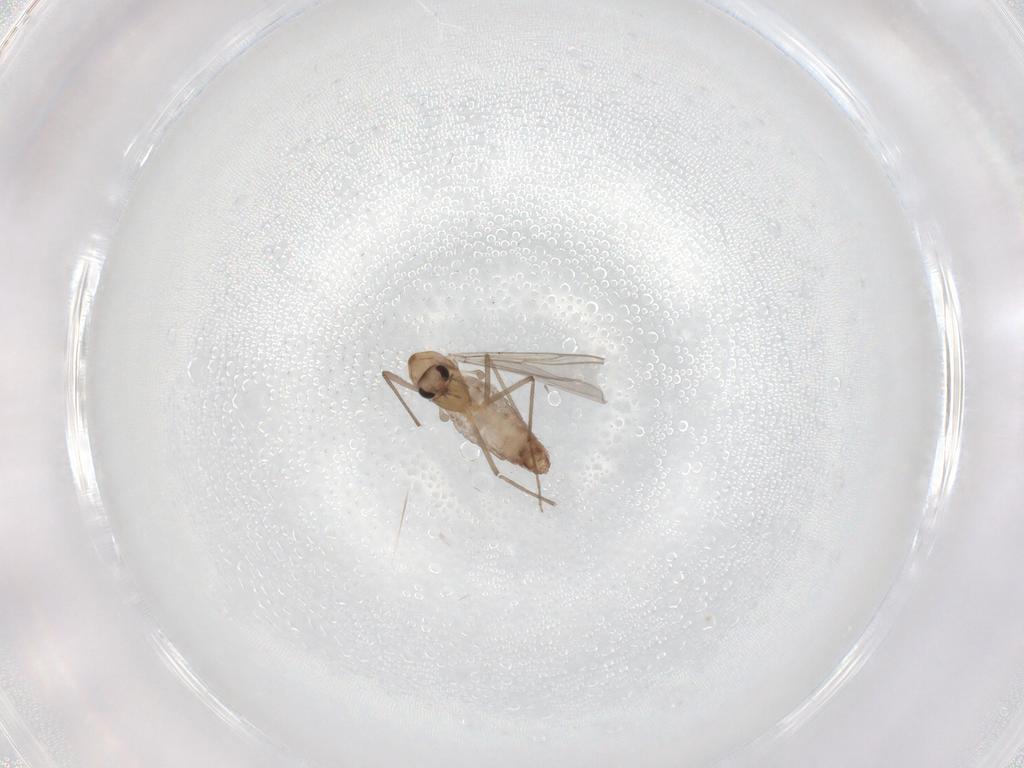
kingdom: Animalia
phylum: Arthropoda
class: Insecta
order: Diptera
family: Chironomidae
